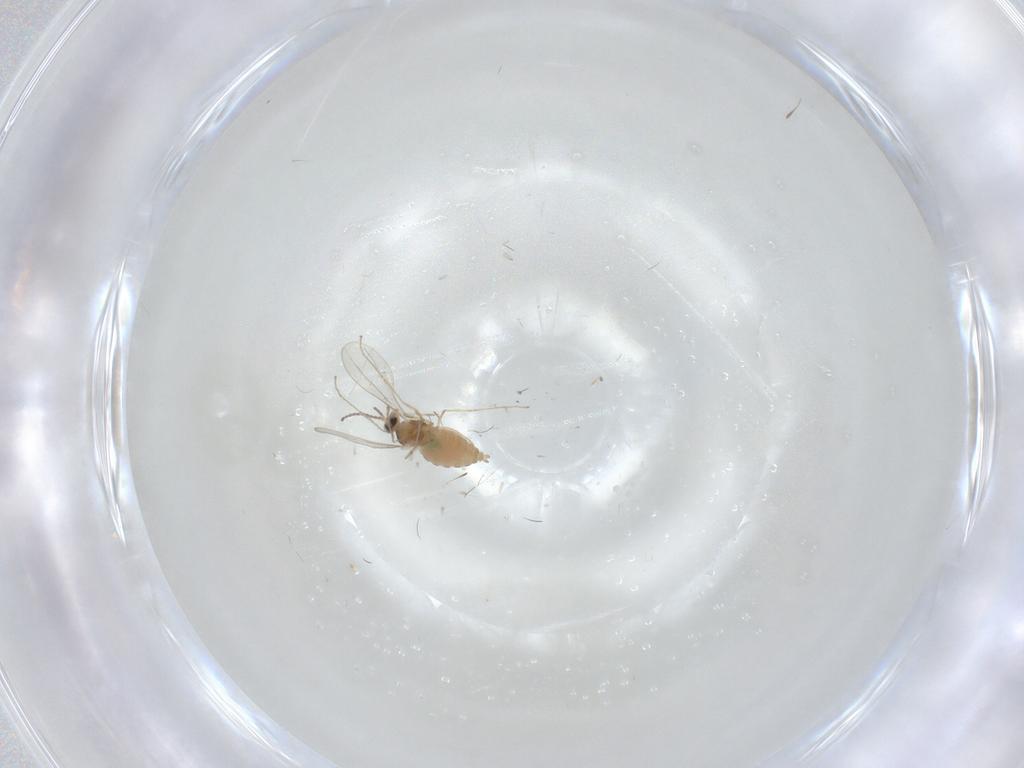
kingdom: Animalia
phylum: Arthropoda
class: Insecta
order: Diptera
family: Cecidomyiidae
